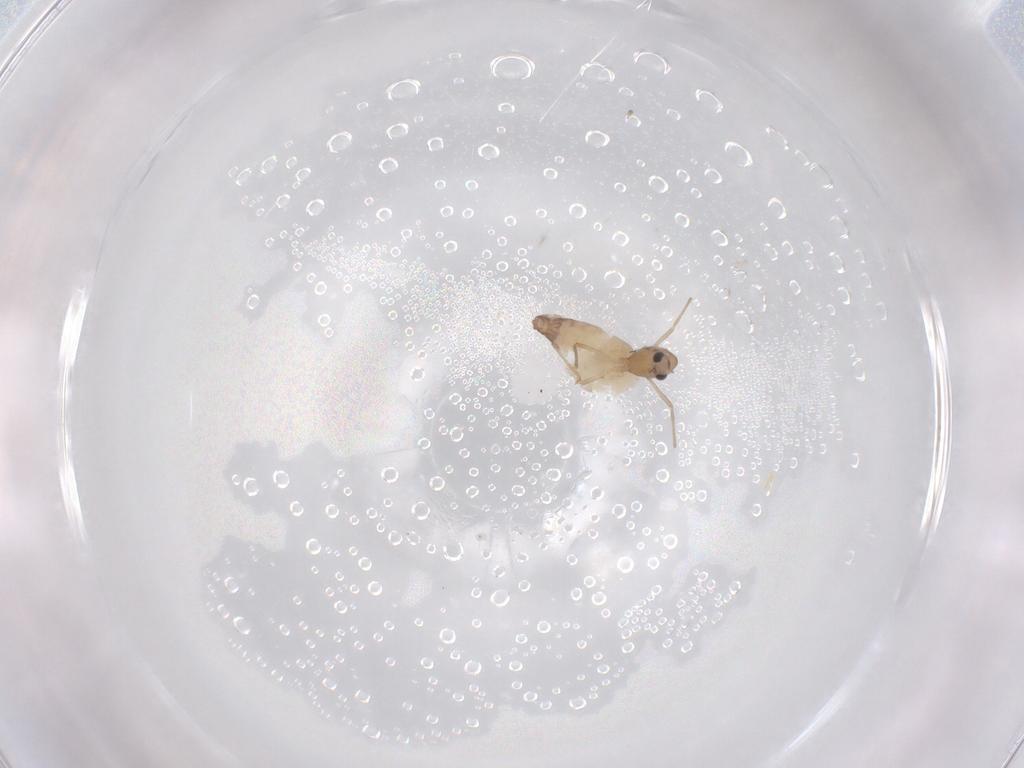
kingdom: Animalia
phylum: Arthropoda
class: Insecta
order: Diptera
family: Chironomidae
